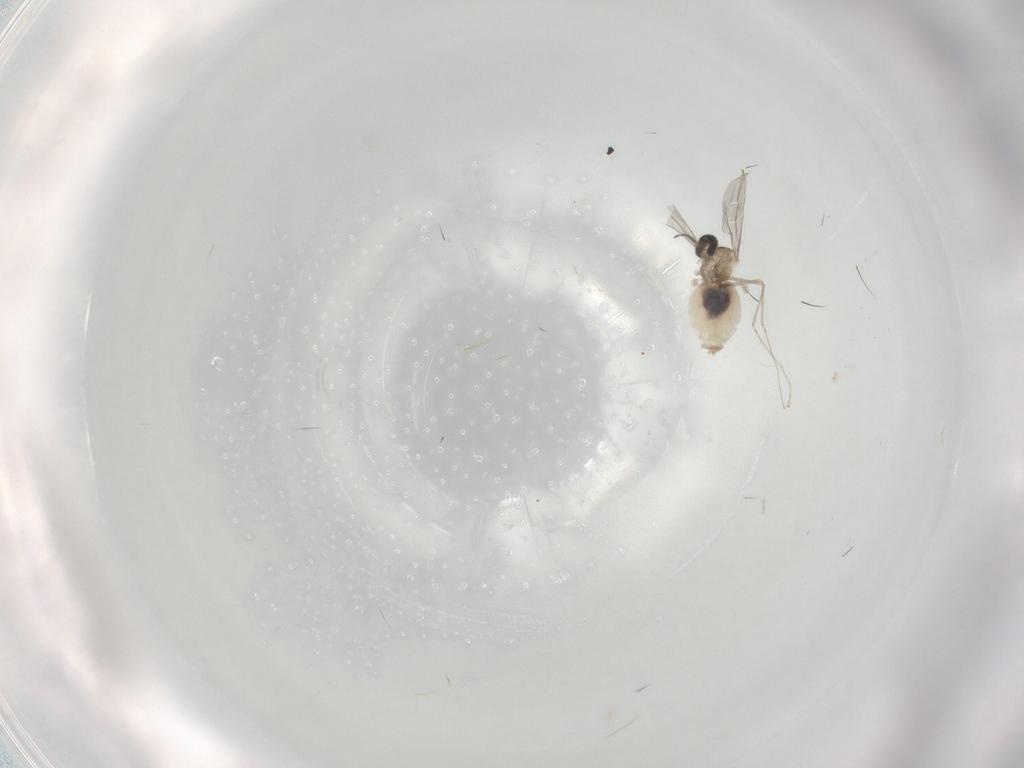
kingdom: Animalia
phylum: Arthropoda
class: Insecta
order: Diptera
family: Cecidomyiidae
